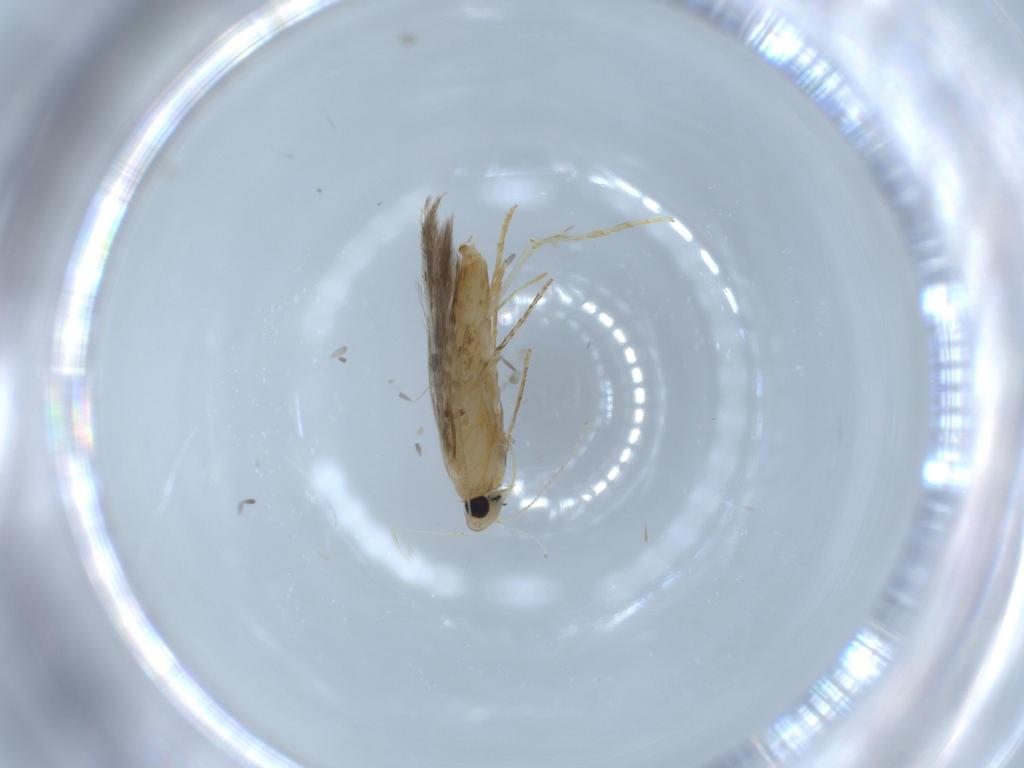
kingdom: Animalia
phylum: Arthropoda
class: Insecta
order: Lepidoptera
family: Tischeriidae
